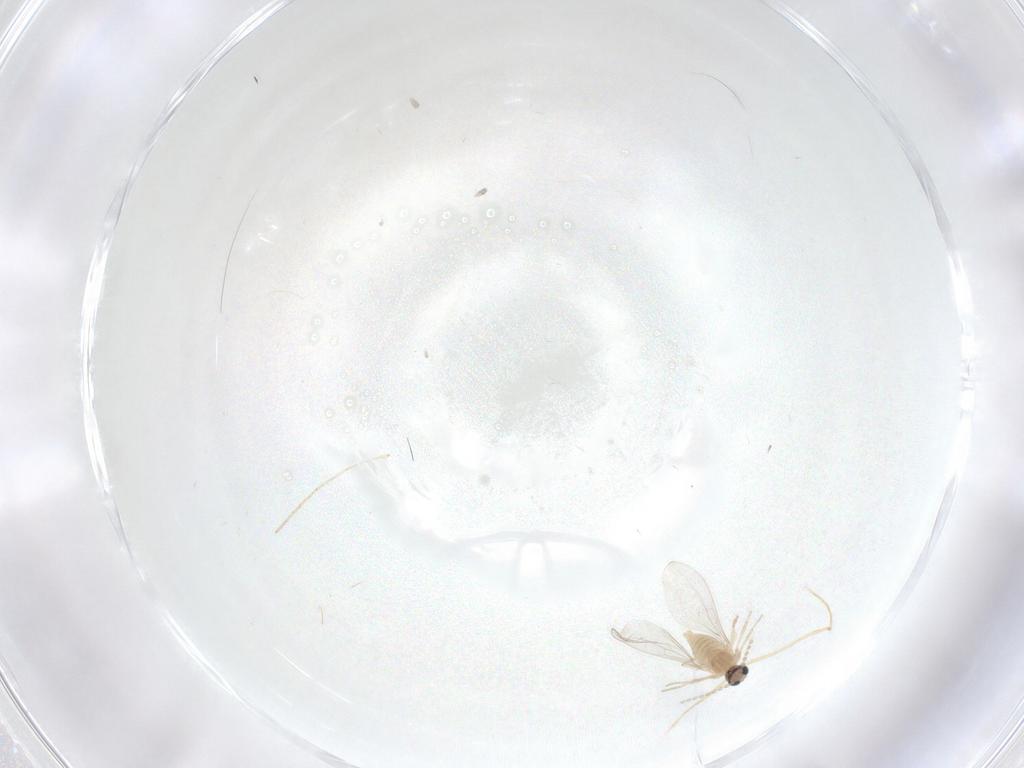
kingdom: Animalia
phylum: Arthropoda
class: Insecta
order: Diptera
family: Cecidomyiidae
